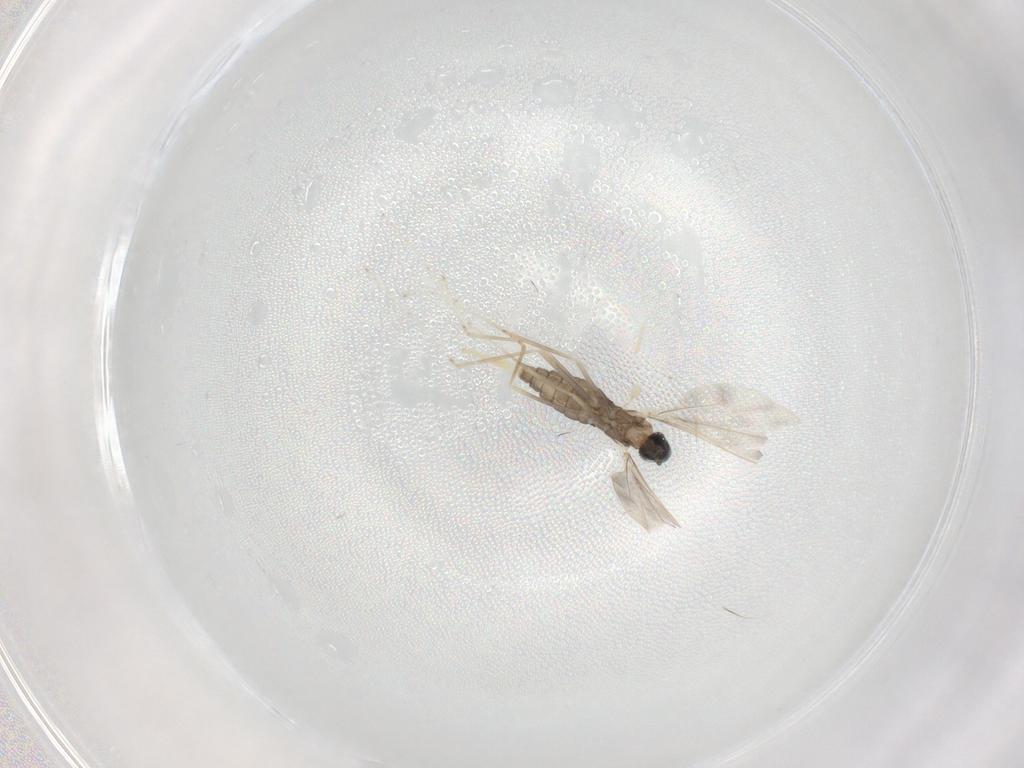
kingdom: Animalia
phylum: Arthropoda
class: Insecta
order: Diptera
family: Cecidomyiidae
